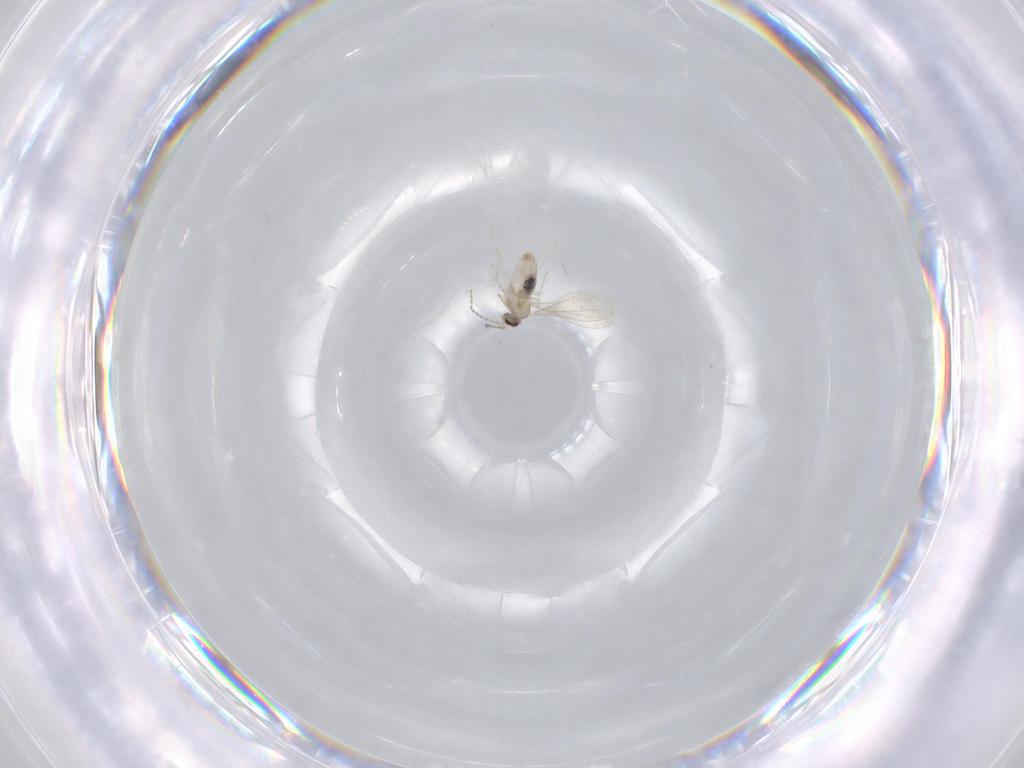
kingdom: Animalia
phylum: Arthropoda
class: Insecta
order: Diptera
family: Cecidomyiidae
